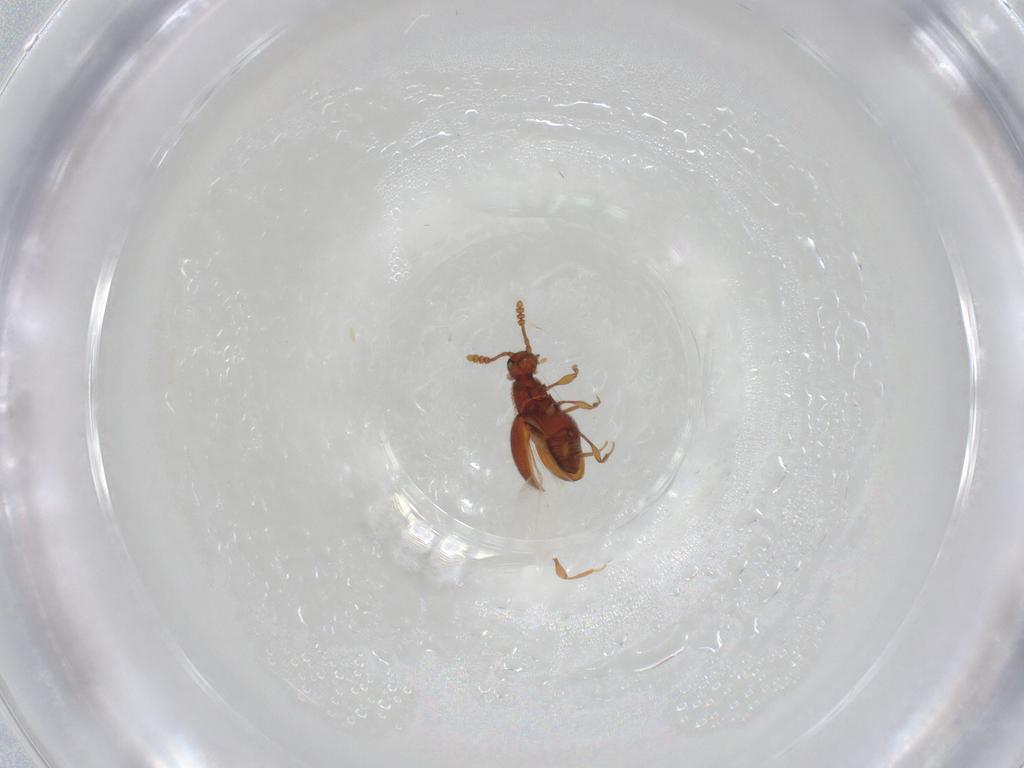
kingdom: Animalia
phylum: Arthropoda
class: Insecta
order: Coleoptera
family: Staphylinidae
